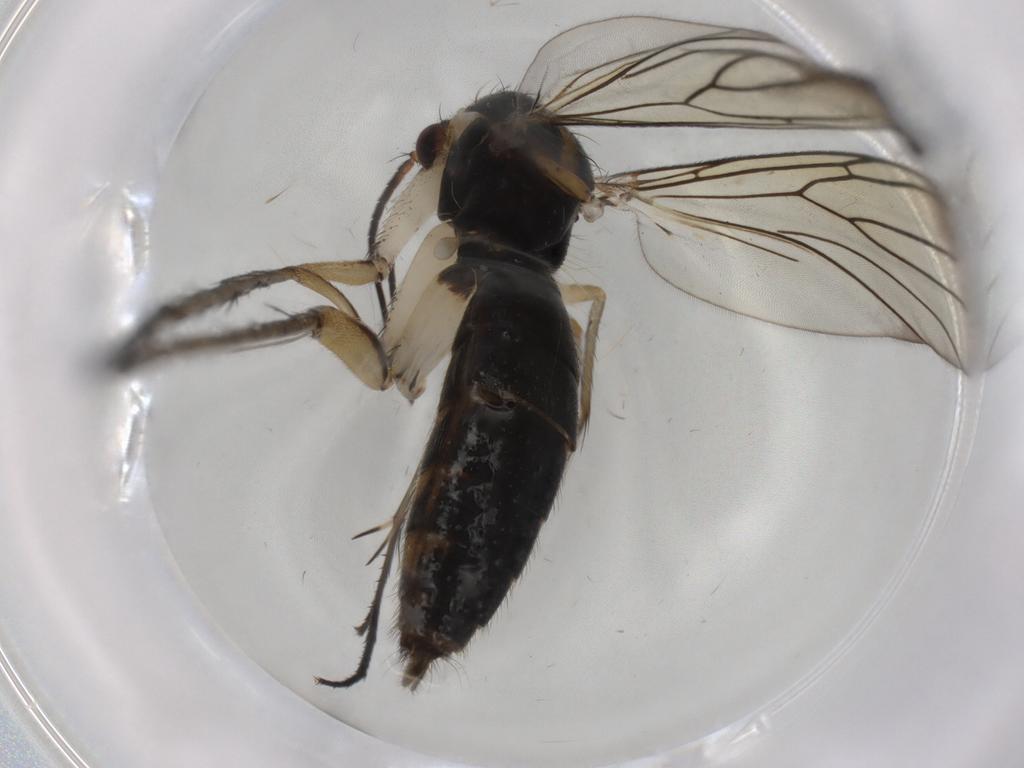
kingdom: Animalia
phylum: Arthropoda
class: Insecta
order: Diptera
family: Mycetophilidae
